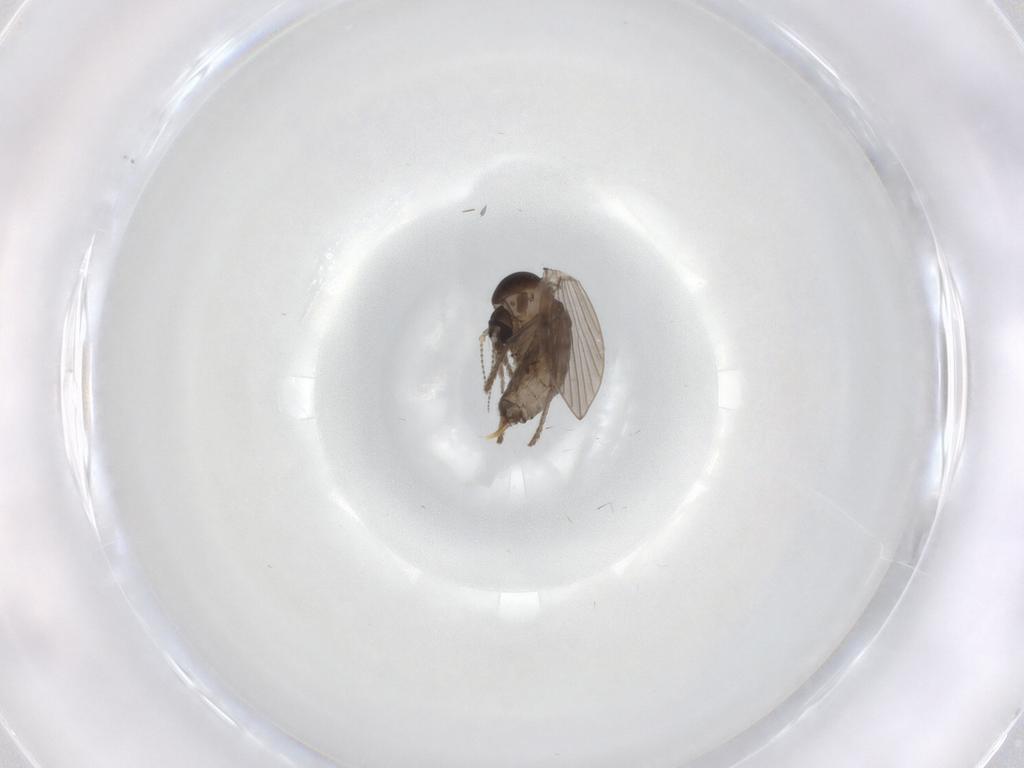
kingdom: Animalia
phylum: Arthropoda
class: Insecta
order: Diptera
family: Psychodidae
